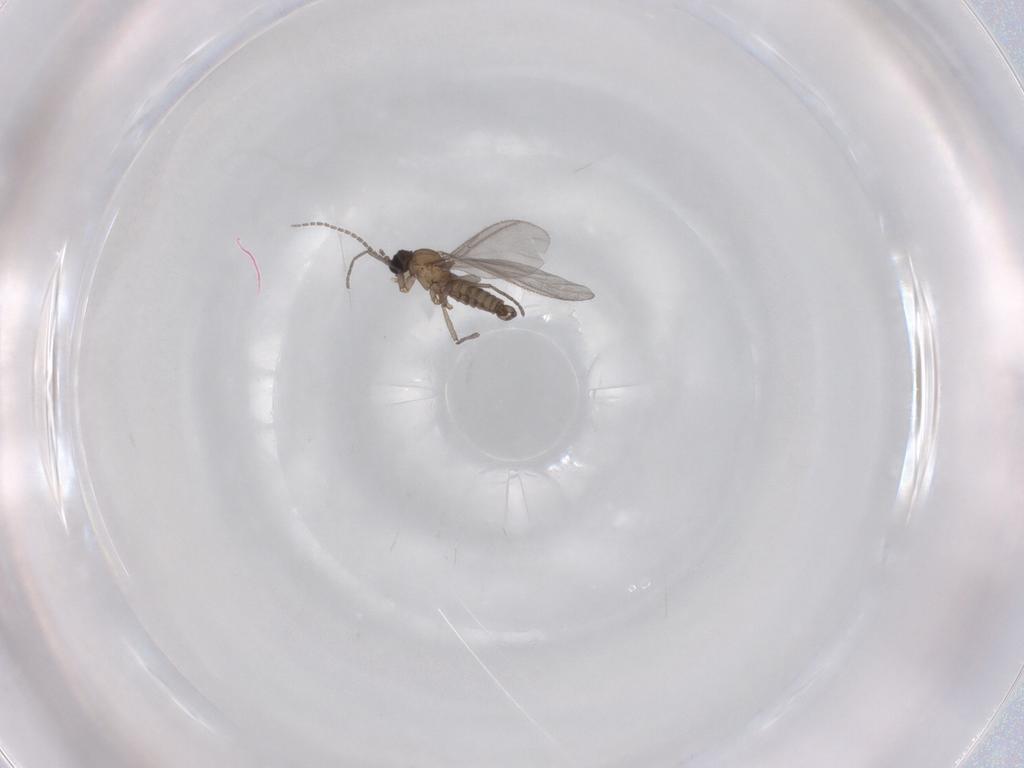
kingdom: Animalia
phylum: Arthropoda
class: Insecta
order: Diptera
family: Sciaridae
